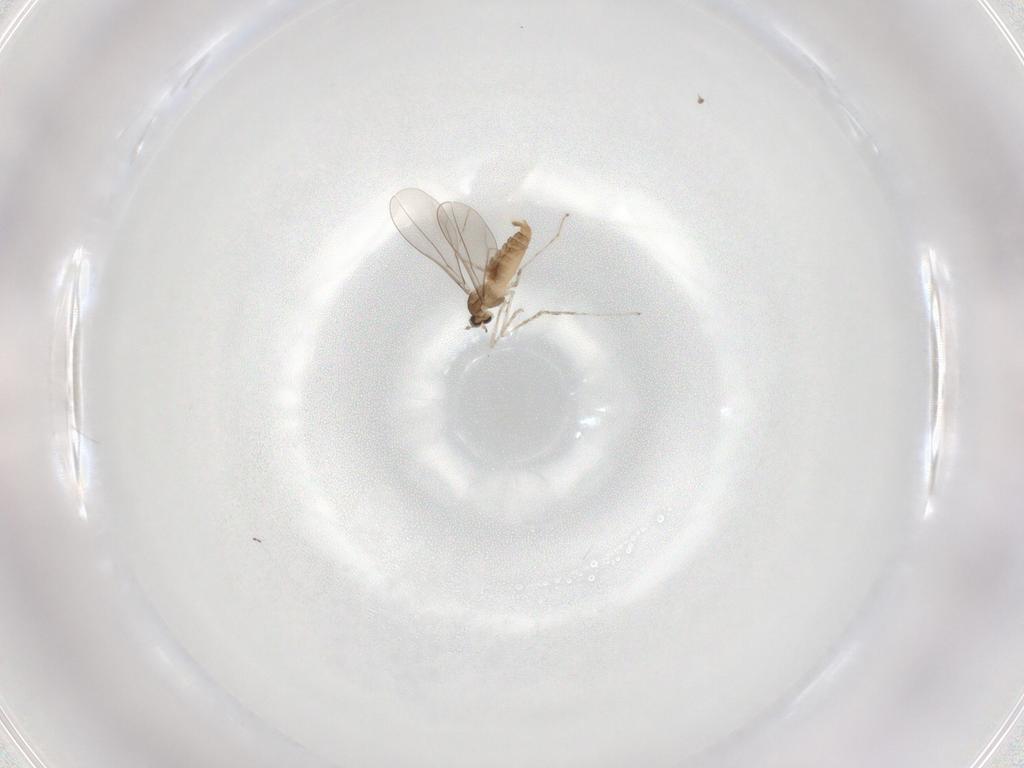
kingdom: Animalia
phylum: Arthropoda
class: Insecta
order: Diptera
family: Cecidomyiidae
